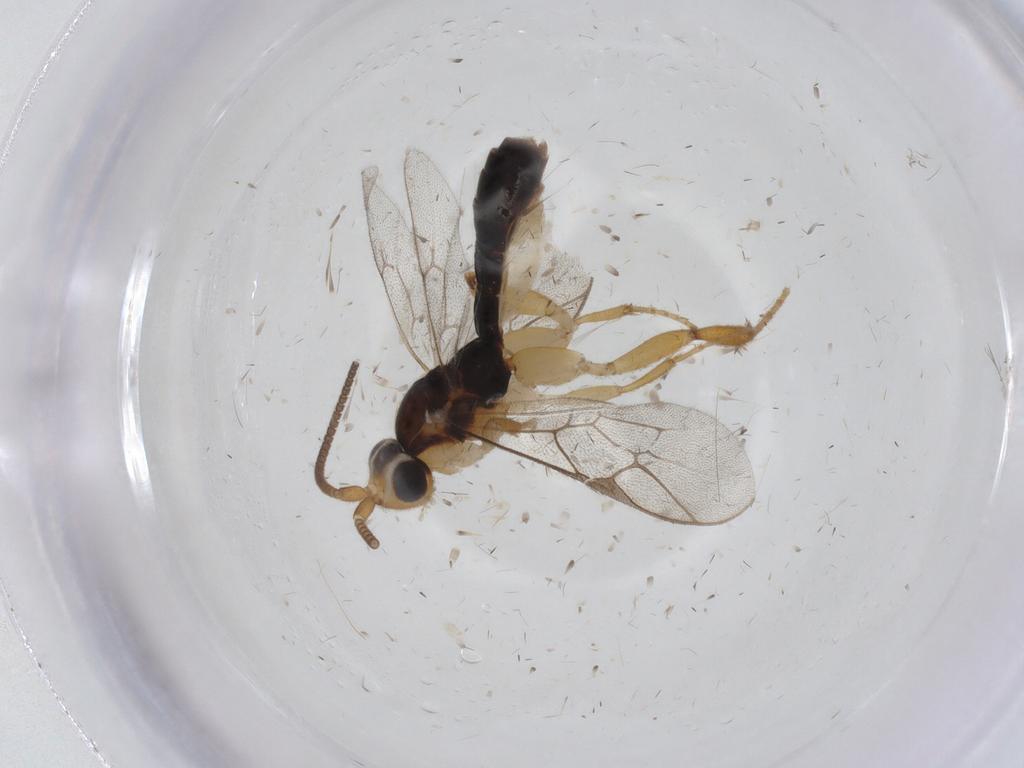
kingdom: Animalia
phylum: Arthropoda
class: Insecta
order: Hymenoptera
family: Ichneumonidae
